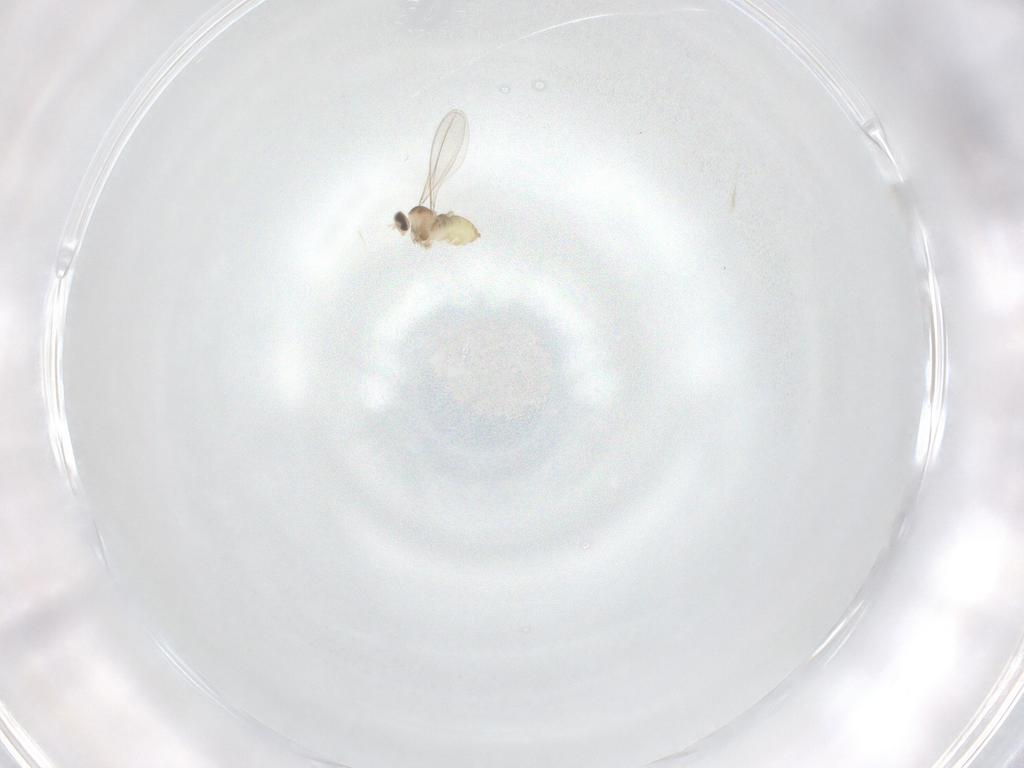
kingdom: Animalia
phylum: Arthropoda
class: Insecta
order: Diptera
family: Cecidomyiidae
